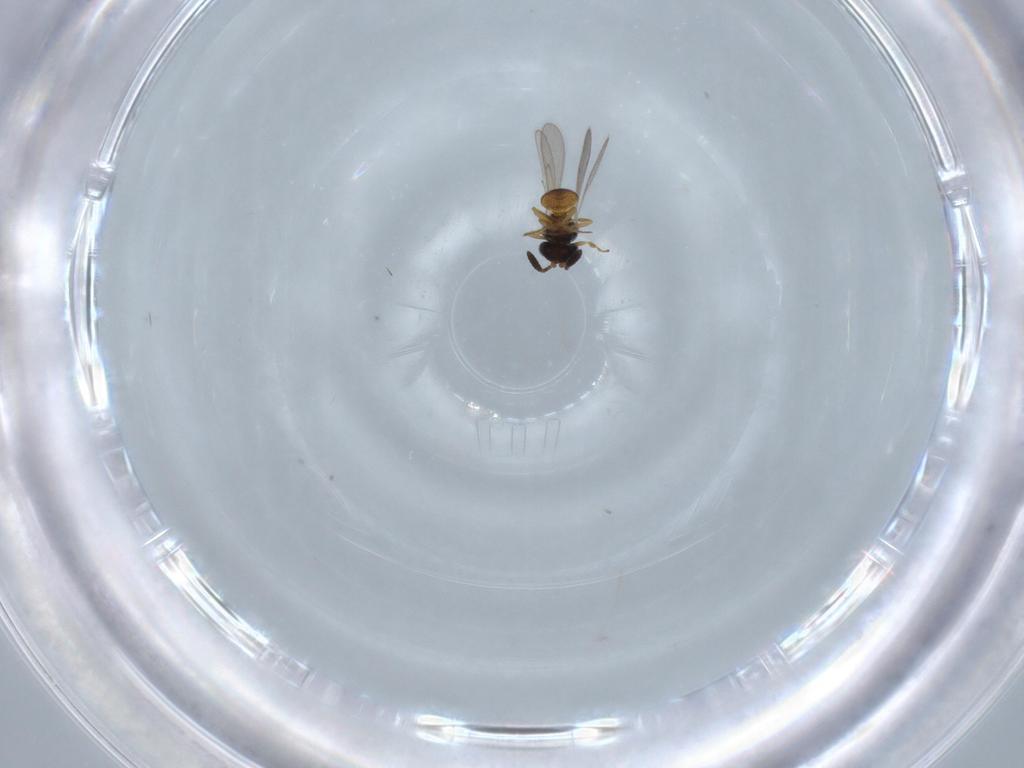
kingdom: Animalia
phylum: Arthropoda
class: Insecta
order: Hymenoptera
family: Scelionidae
